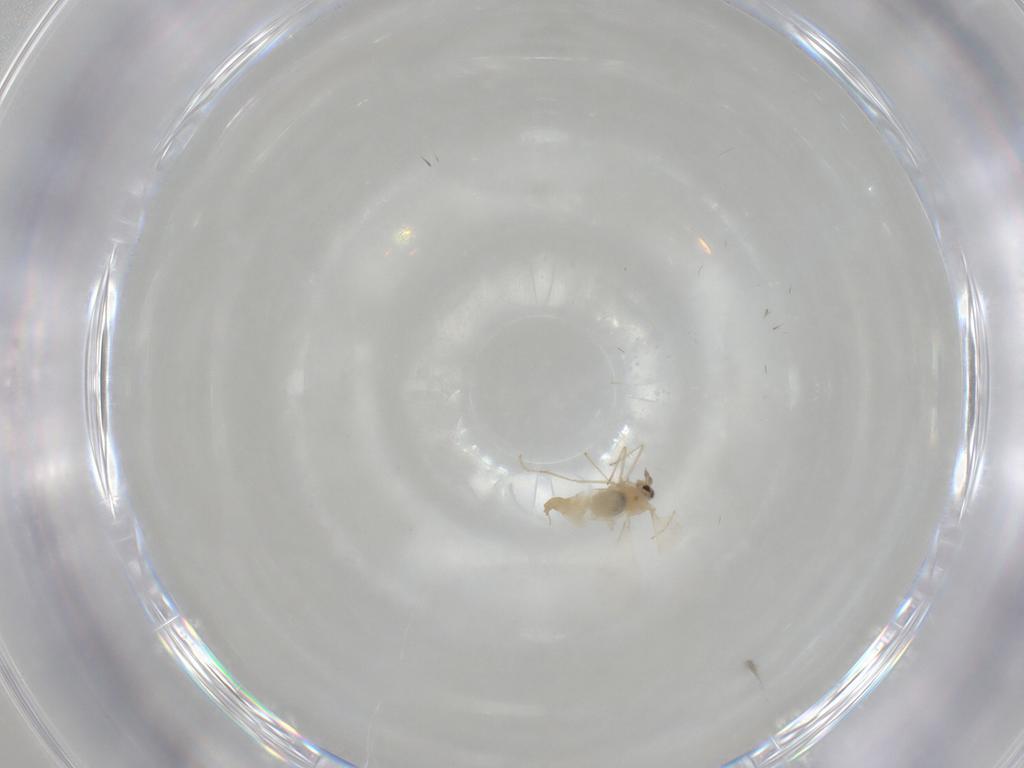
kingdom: Animalia
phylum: Arthropoda
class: Insecta
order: Diptera
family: Cecidomyiidae
